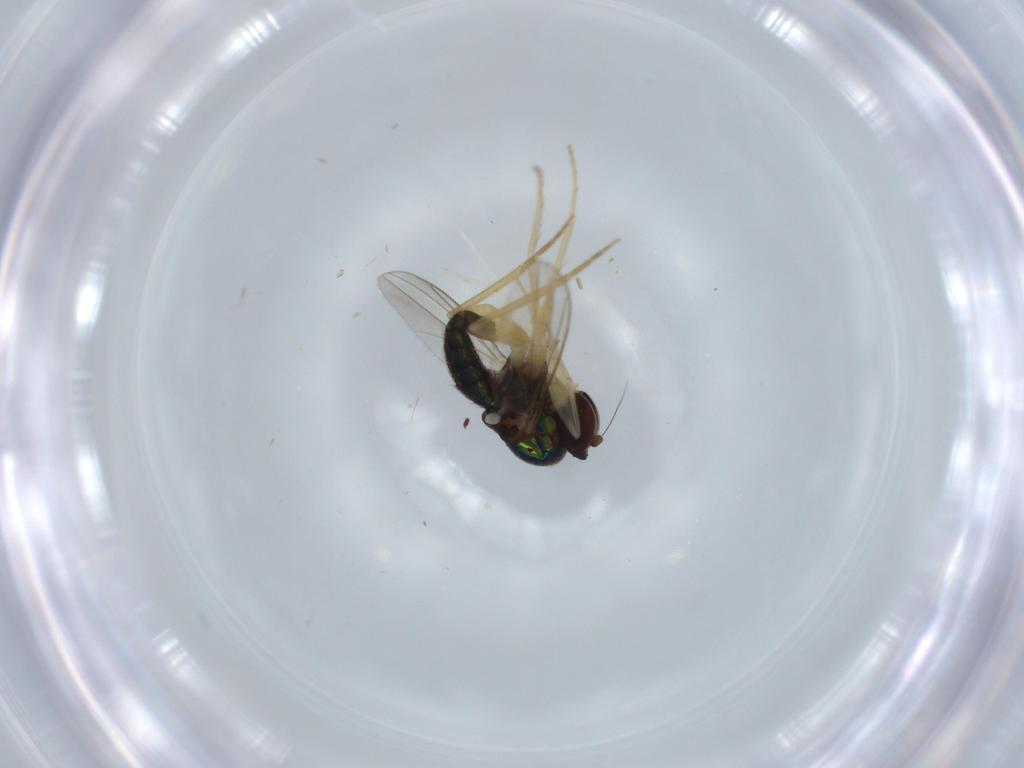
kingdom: Animalia
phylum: Arthropoda
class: Insecta
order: Diptera
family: Dolichopodidae
